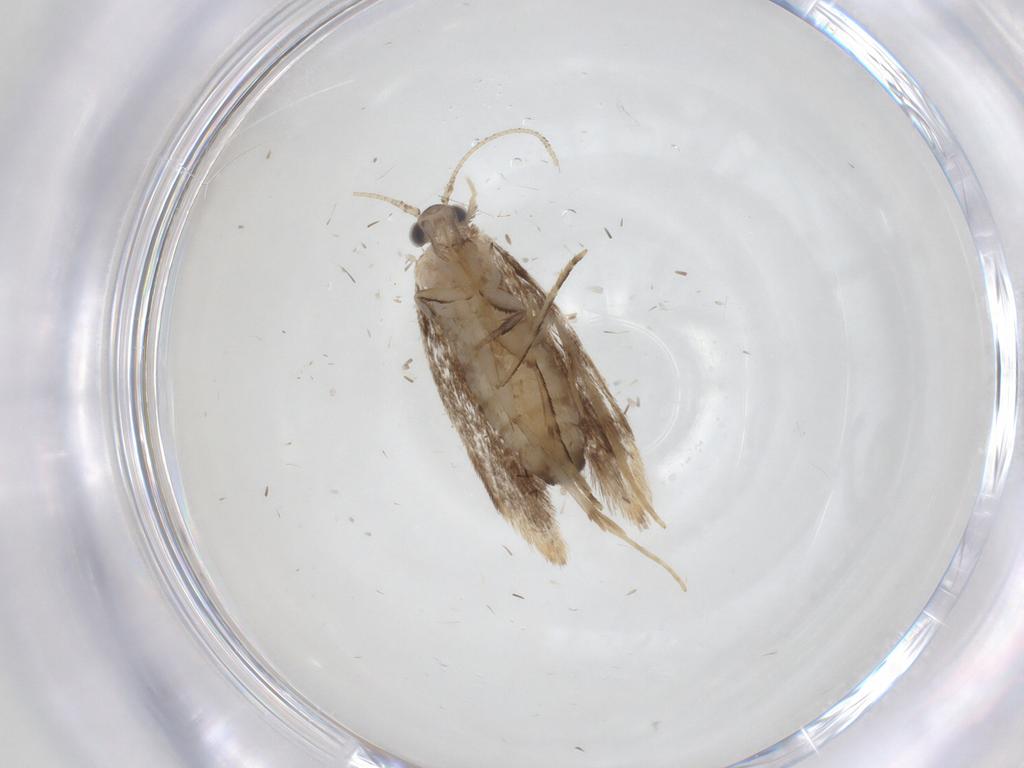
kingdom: Animalia
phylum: Arthropoda
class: Insecta
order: Lepidoptera
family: Dryadaulidae
